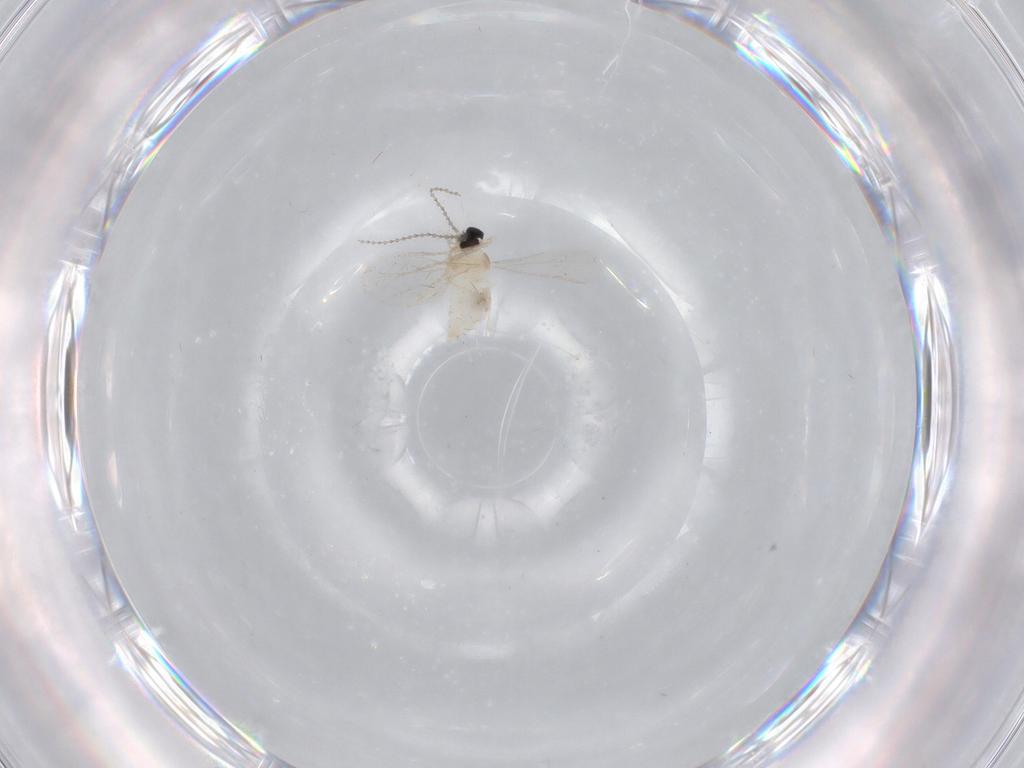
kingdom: Animalia
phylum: Arthropoda
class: Insecta
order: Diptera
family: Cecidomyiidae
